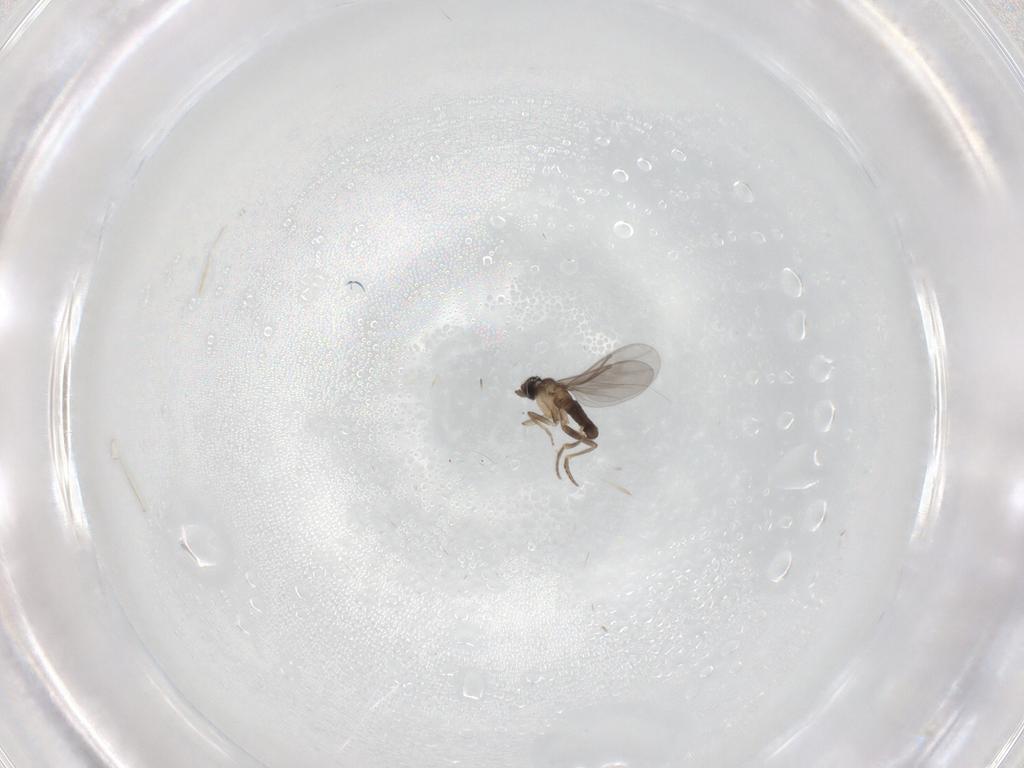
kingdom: Animalia
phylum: Arthropoda
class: Insecta
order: Diptera
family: Phoridae
